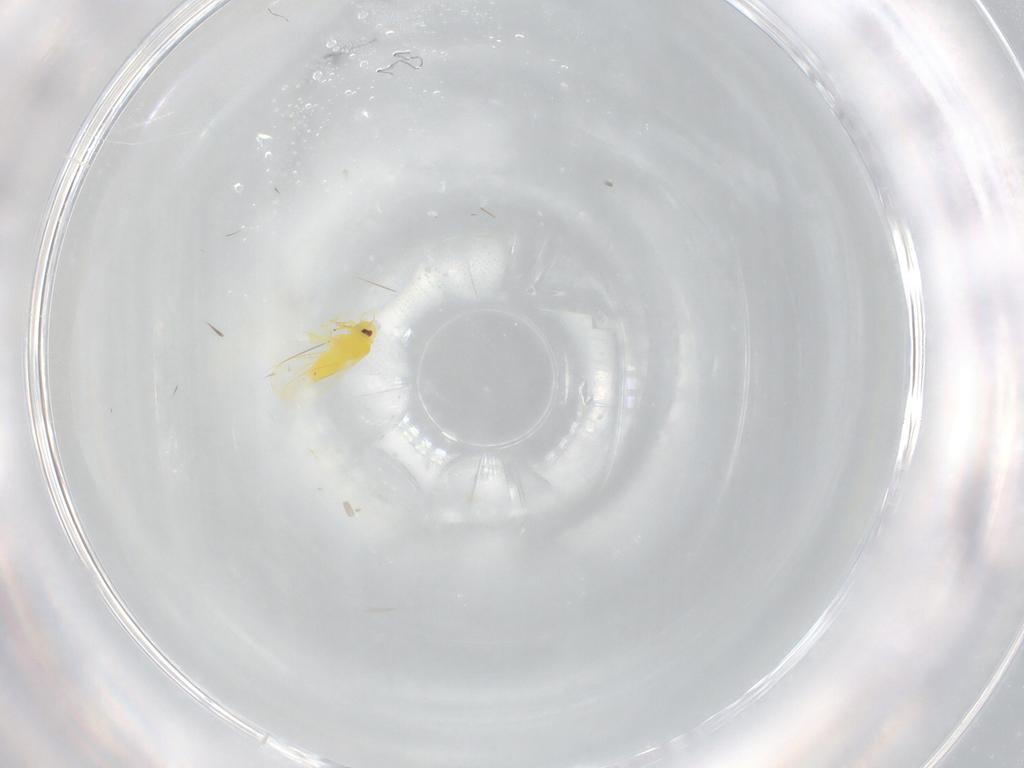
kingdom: Animalia
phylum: Arthropoda
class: Insecta
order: Hemiptera
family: Aleyrodidae
